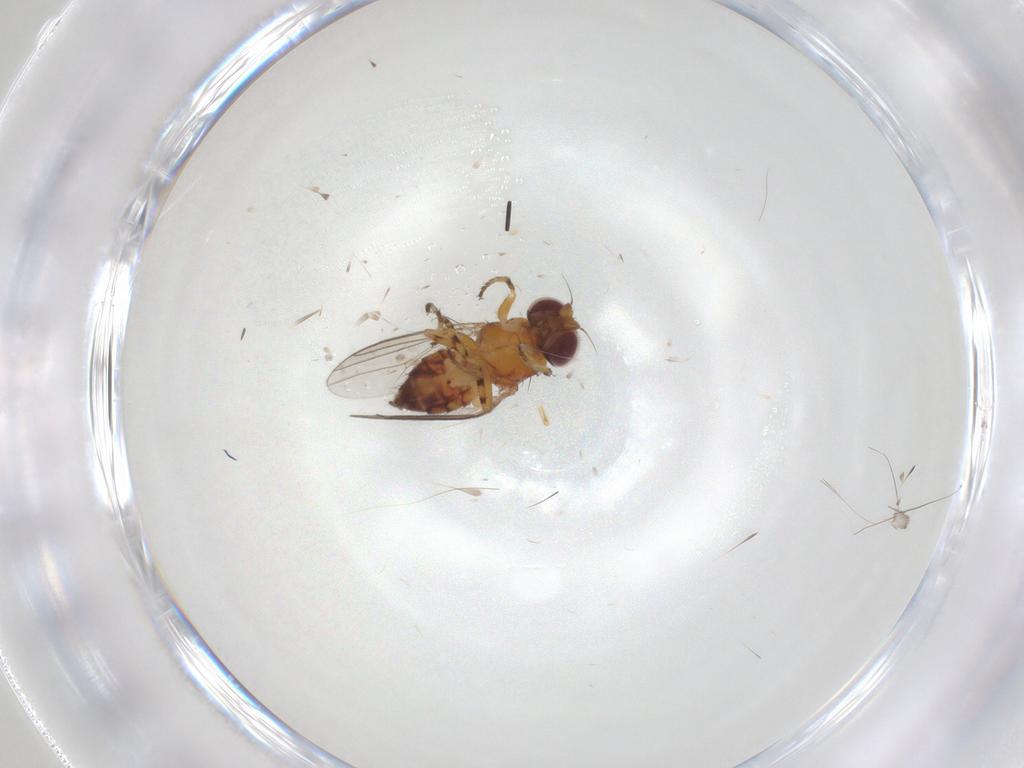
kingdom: Animalia
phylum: Arthropoda
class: Insecta
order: Diptera
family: Chloropidae
